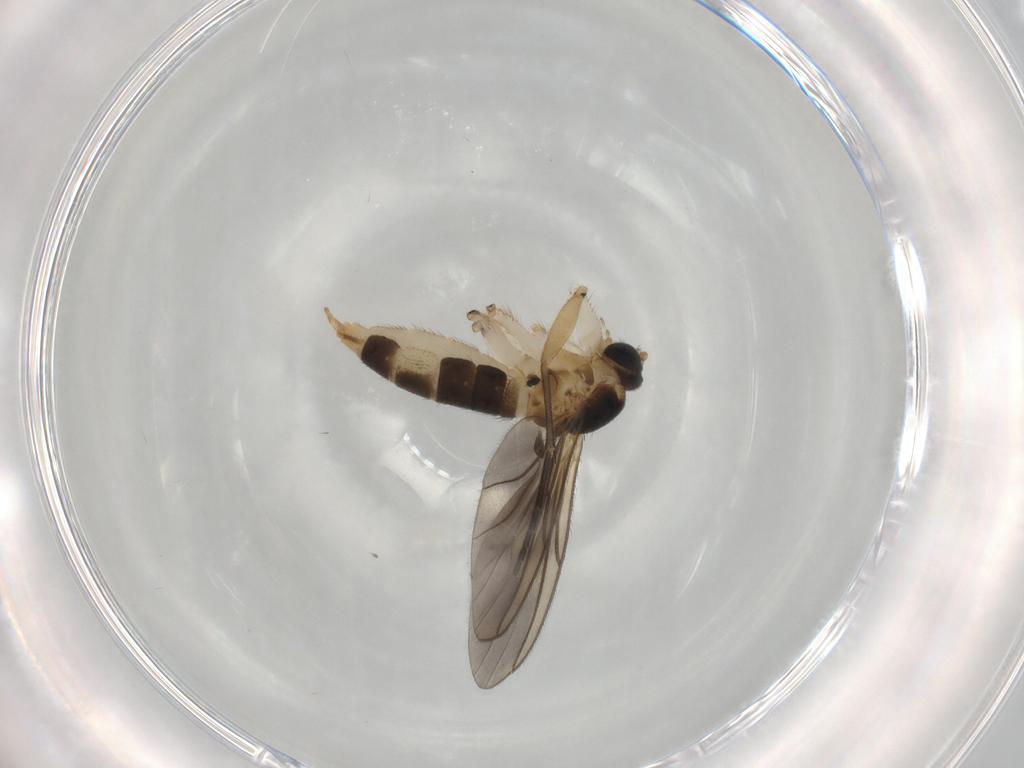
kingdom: Animalia
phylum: Arthropoda
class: Insecta
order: Diptera
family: Psychodidae
